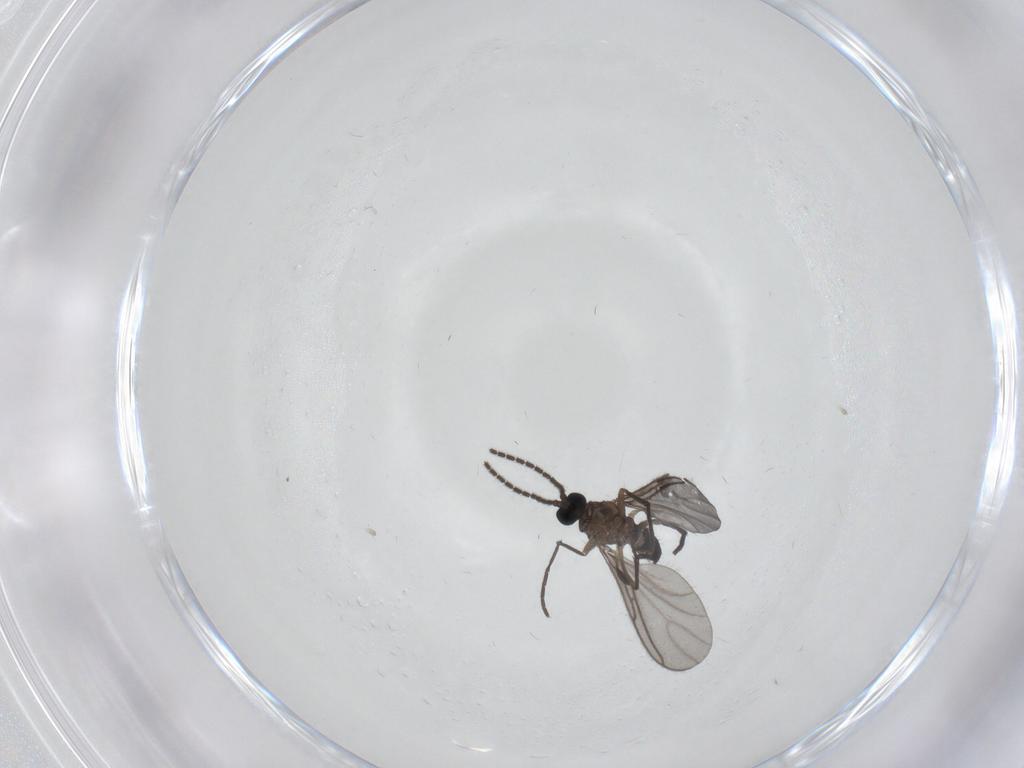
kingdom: Animalia
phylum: Arthropoda
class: Insecta
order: Diptera
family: Sciaridae
